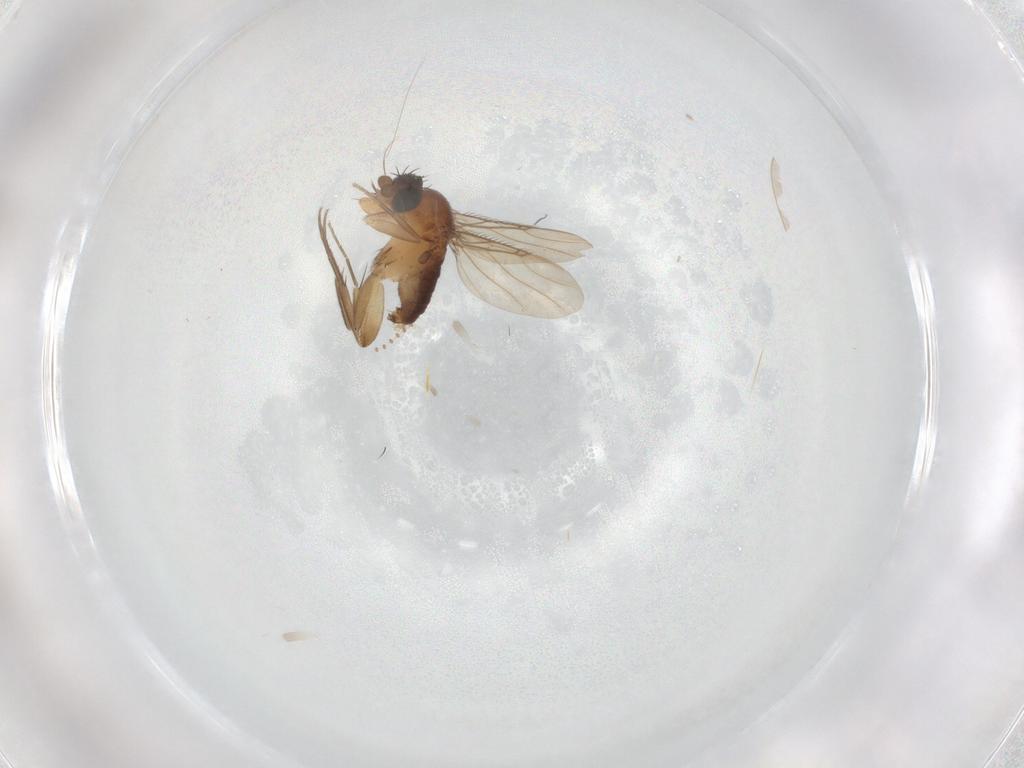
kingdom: Animalia
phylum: Arthropoda
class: Insecta
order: Diptera
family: Phoridae
